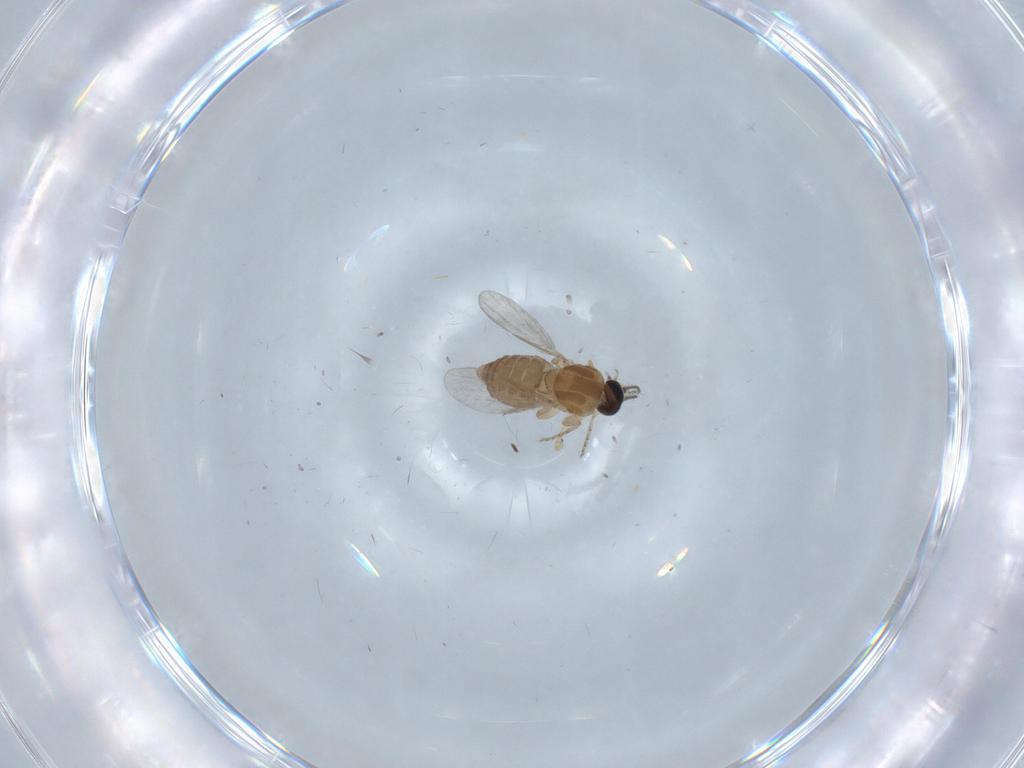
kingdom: Animalia
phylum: Arthropoda
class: Insecta
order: Diptera
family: Ceratopogonidae
